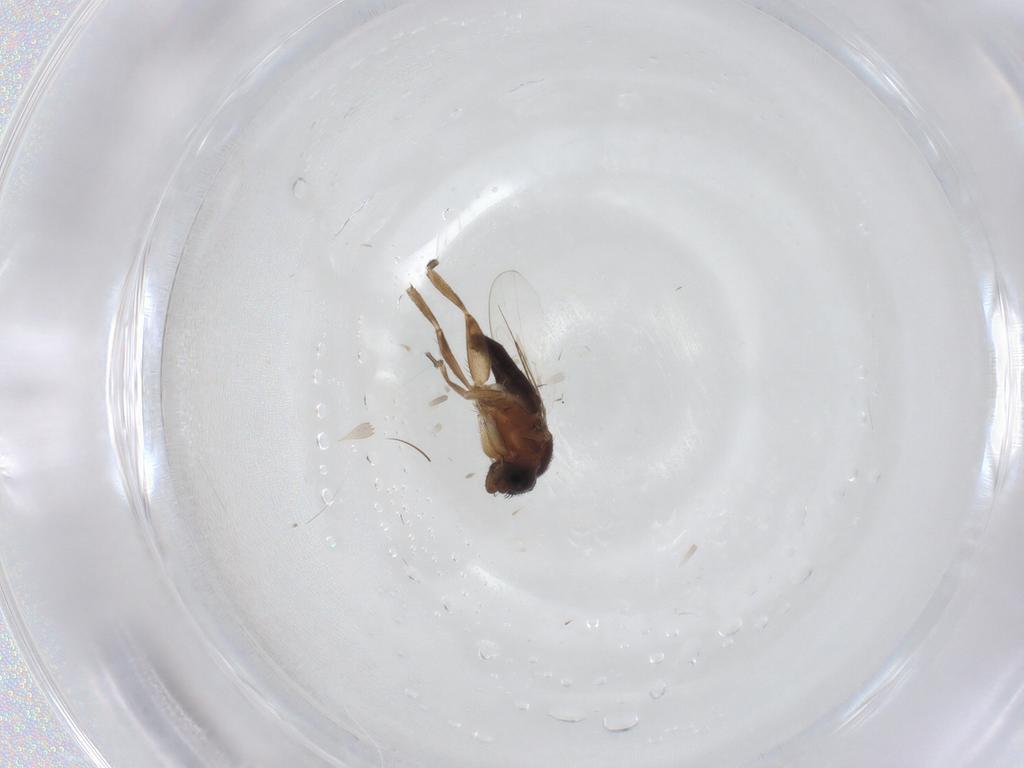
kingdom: Animalia
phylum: Arthropoda
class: Insecta
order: Diptera
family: Phoridae
